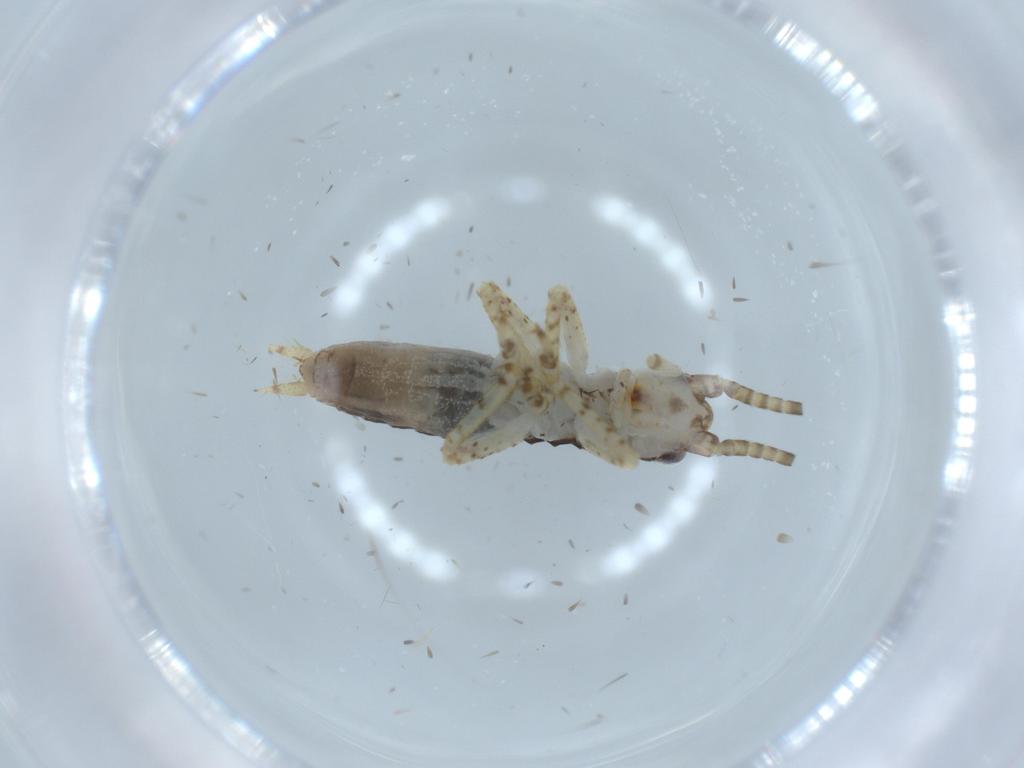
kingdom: Animalia
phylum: Arthropoda
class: Insecta
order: Orthoptera
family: Gryllidae
